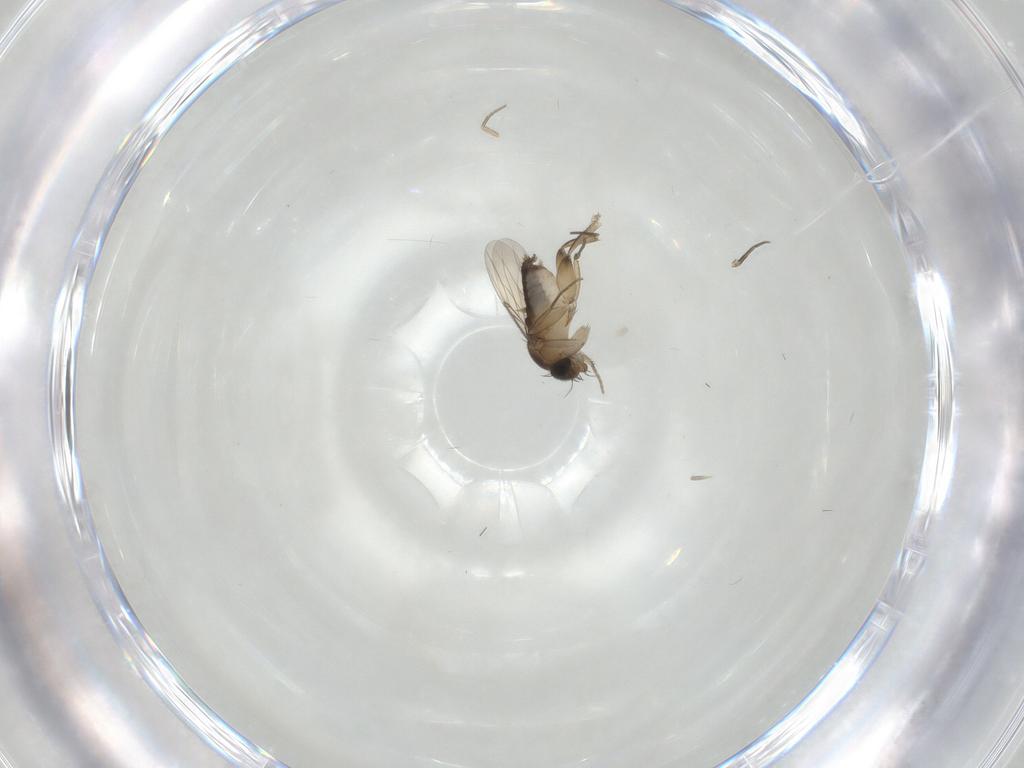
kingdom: Animalia
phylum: Arthropoda
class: Insecta
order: Diptera
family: Phoridae
